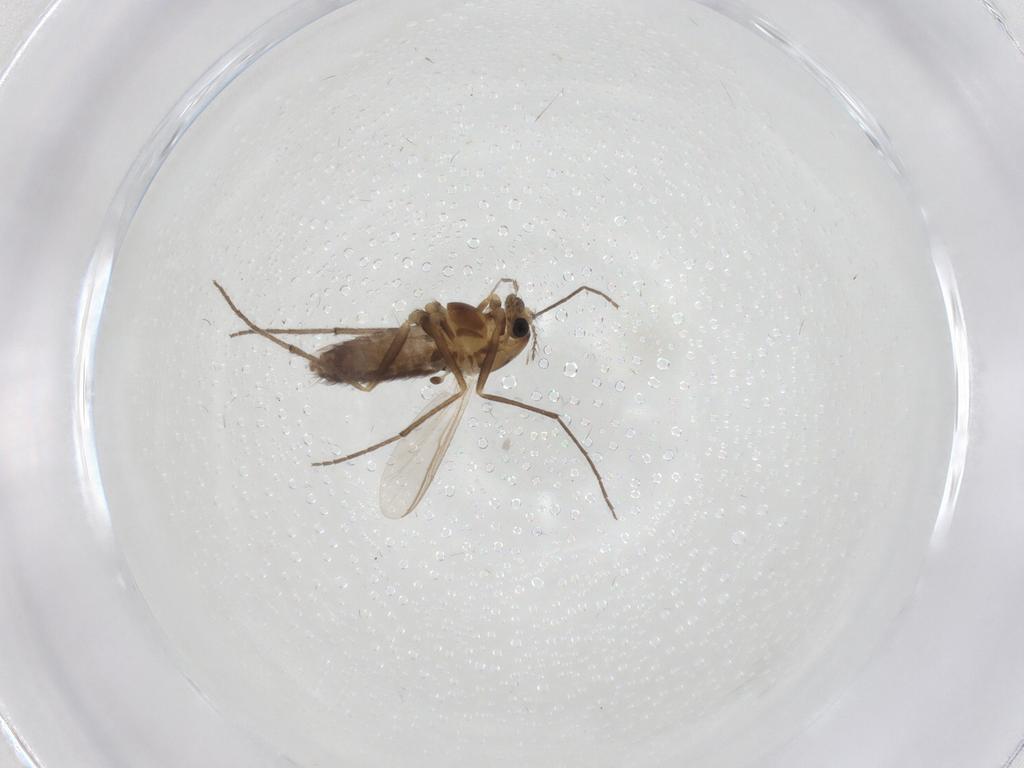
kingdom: Animalia
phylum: Arthropoda
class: Insecta
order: Diptera
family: Chironomidae
